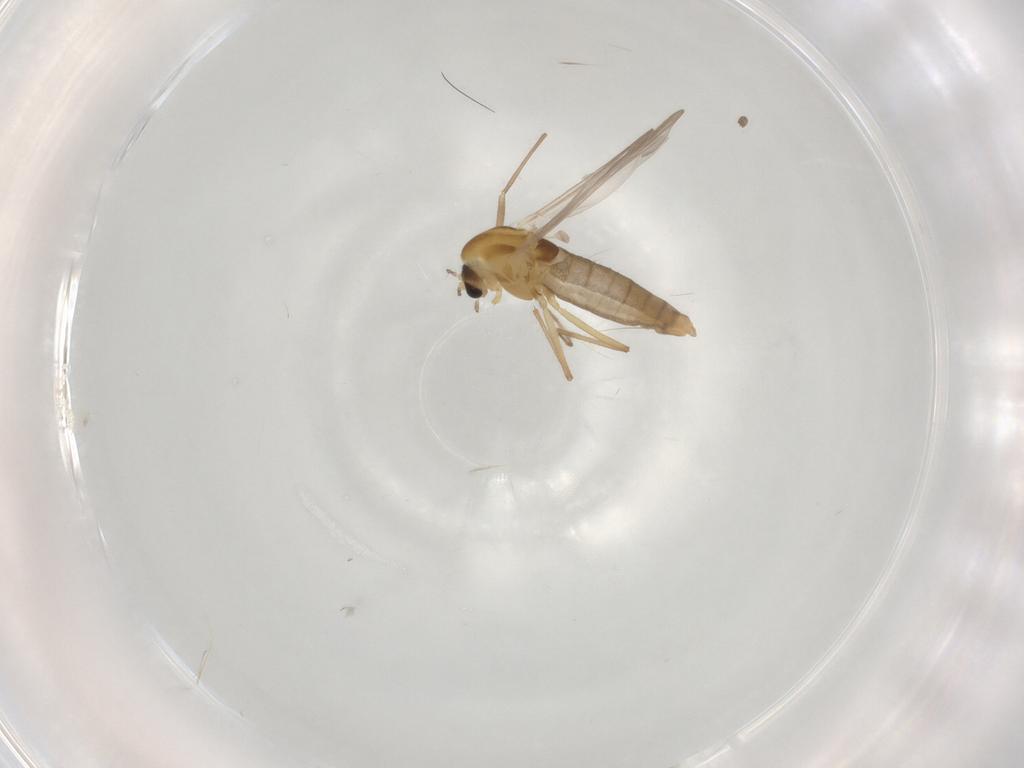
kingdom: Animalia
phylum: Arthropoda
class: Insecta
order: Diptera
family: Chironomidae
